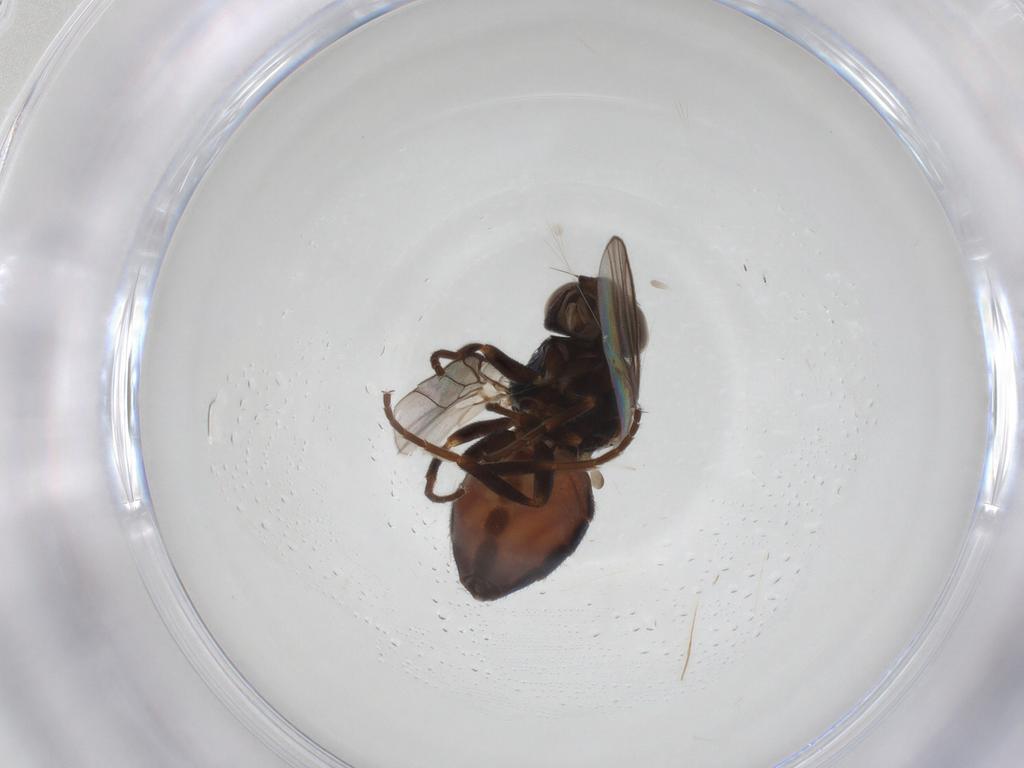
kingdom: Animalia
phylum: Arthropoda
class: Insecta
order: Diptera
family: Chloropidae
